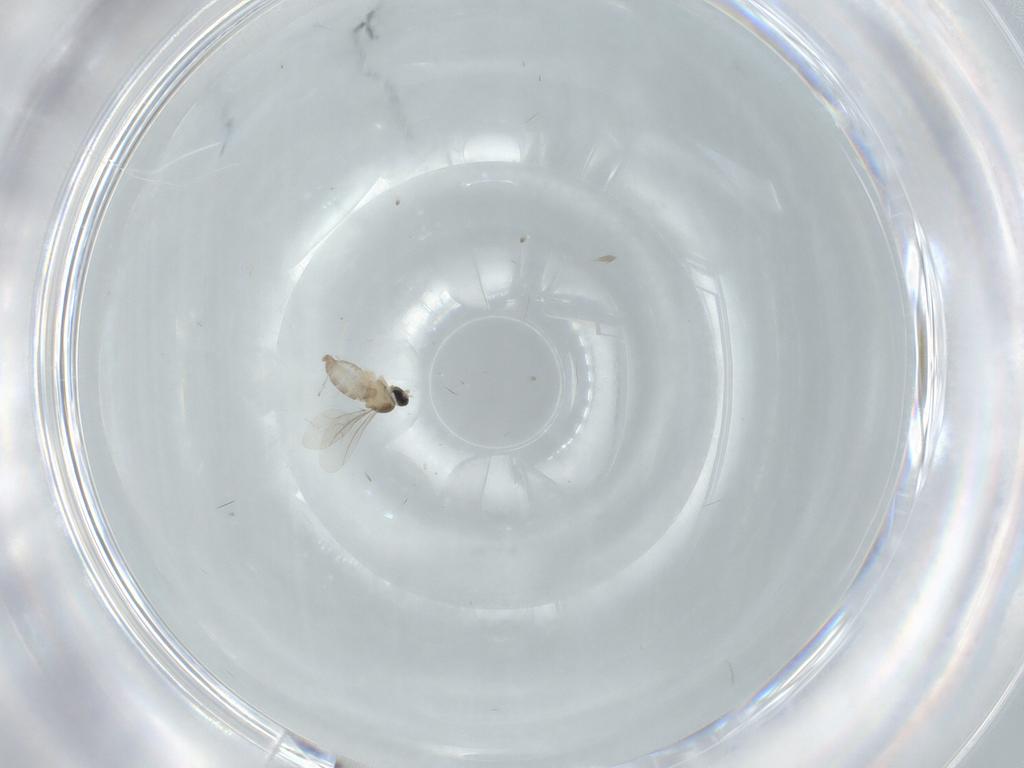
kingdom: Animalia
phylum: Arthropoda
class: Insecta
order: Diptera
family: Cecidomyiidae
